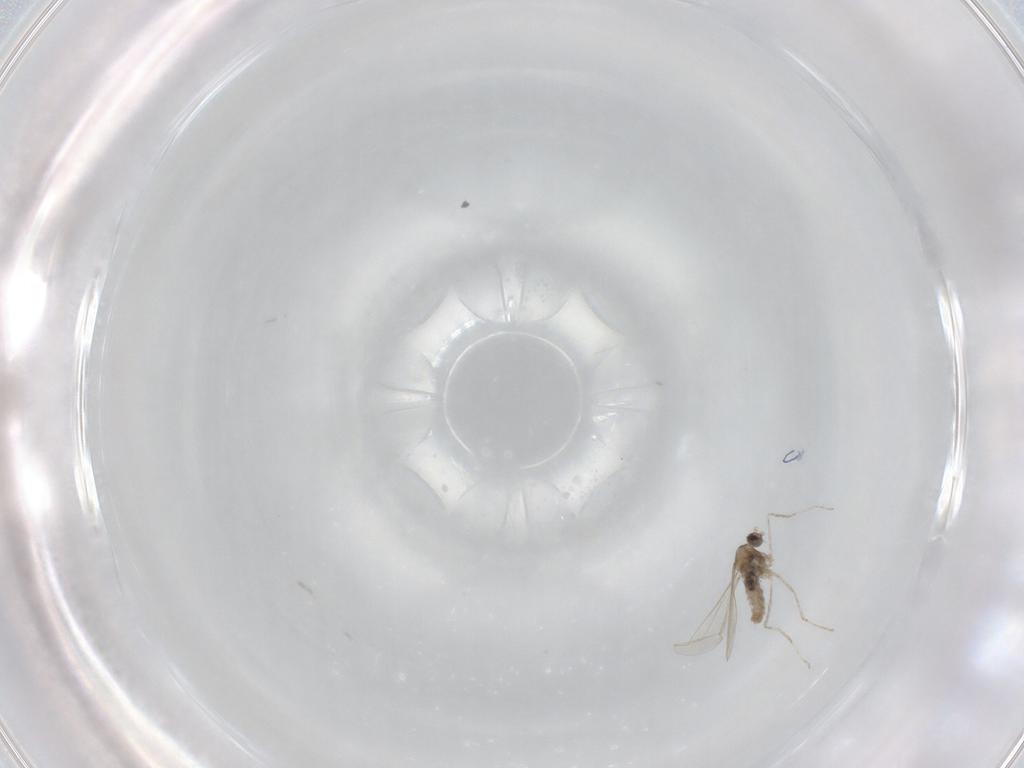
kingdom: Animalia
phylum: Arthropoda
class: Insecta
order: Diptera
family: Cecidomyiidae
